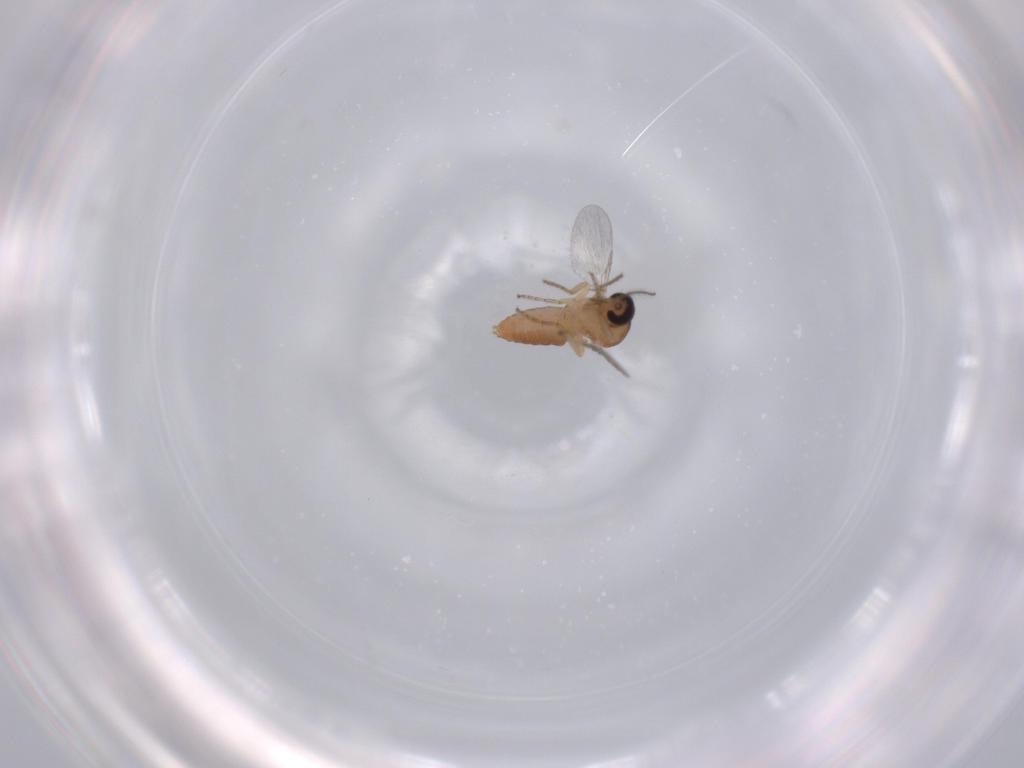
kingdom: Animalia
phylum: Arthropoda
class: Insecta
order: Diptera
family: Ceratopogonidae
